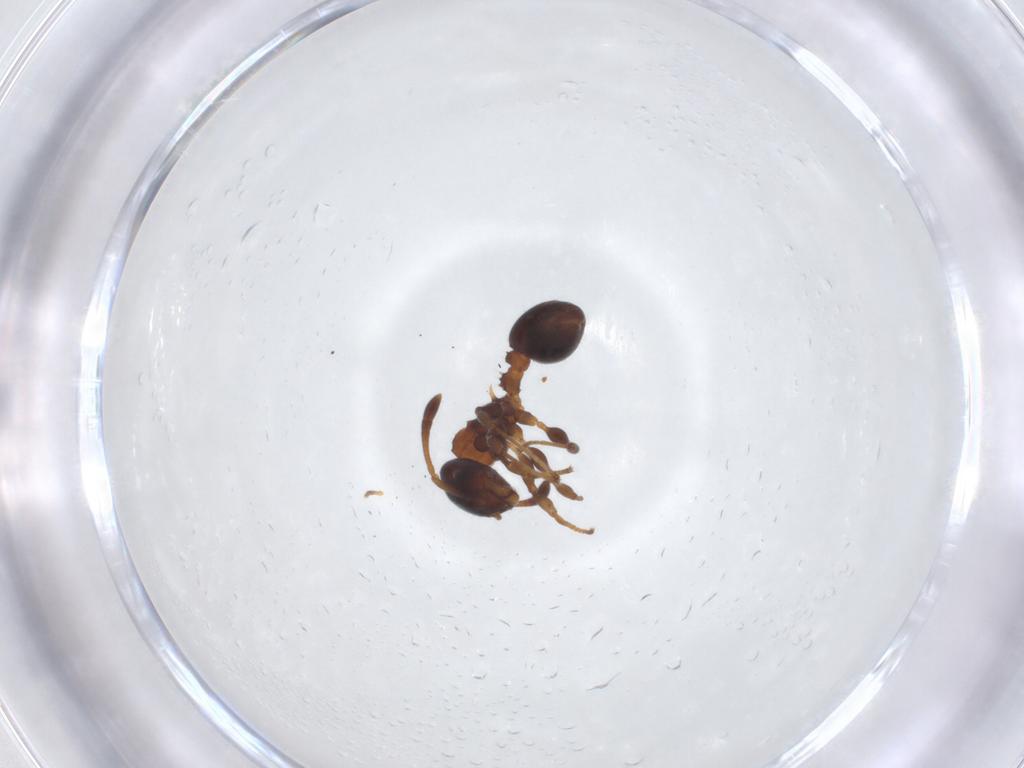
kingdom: Animalia
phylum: Arthropoda
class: Insecta
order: Hymenoptera
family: Formicidae
